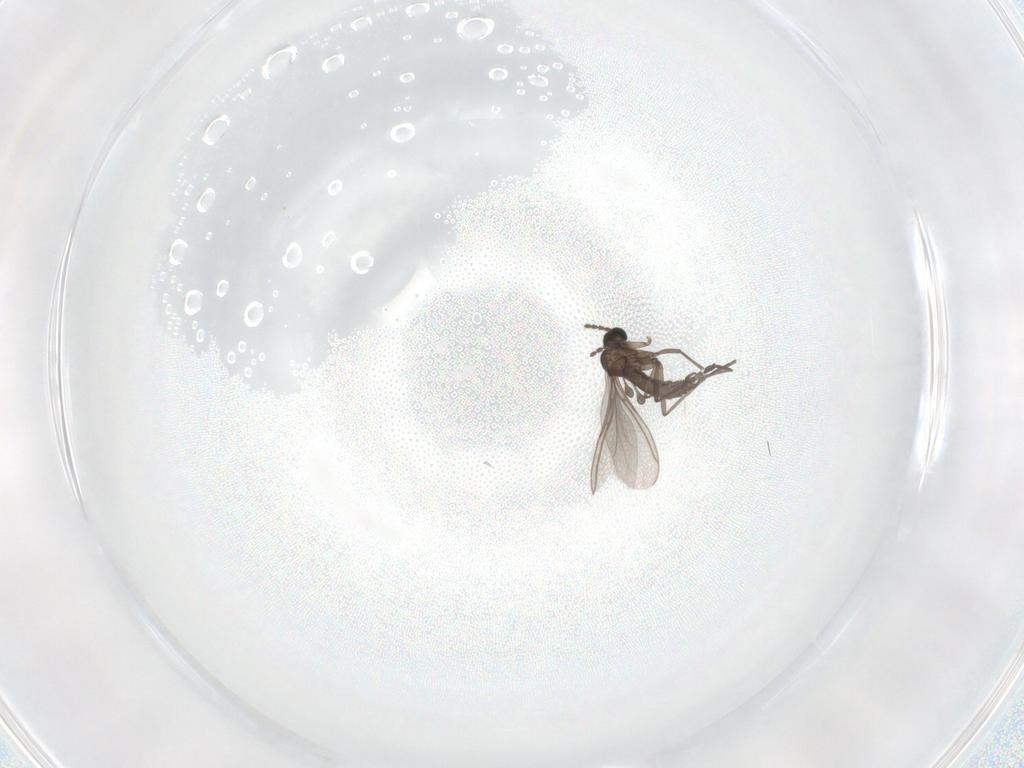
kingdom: Animalia
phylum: Arthropoda
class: Insecta
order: Diptera
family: Sciaridae
